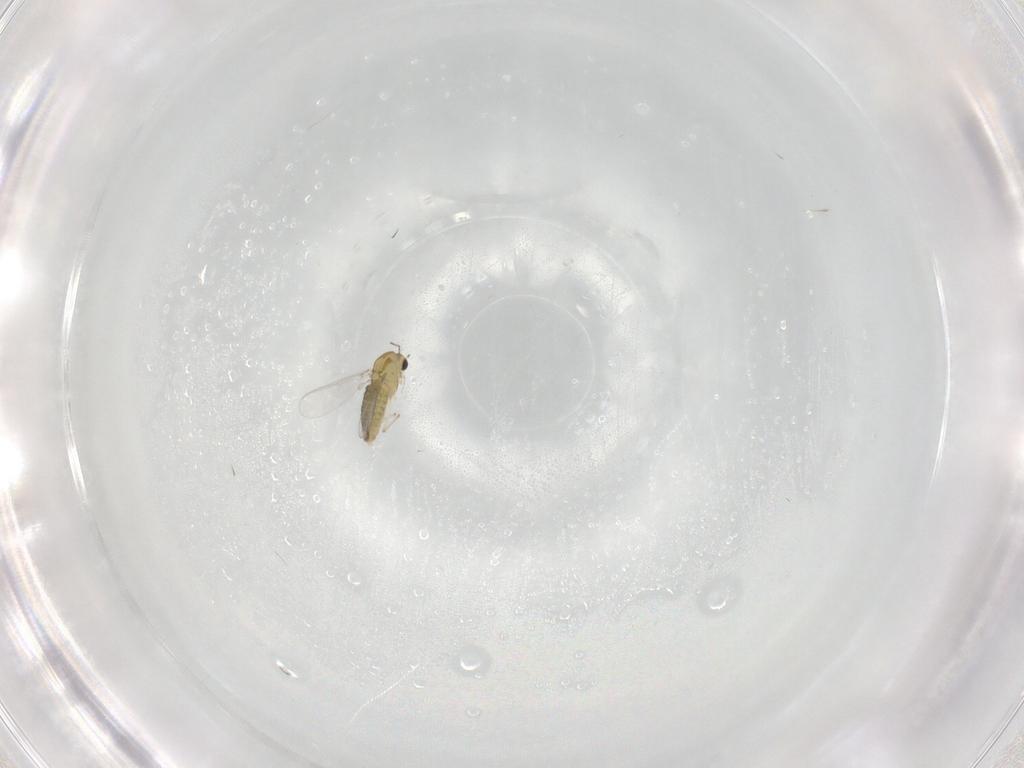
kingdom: Animalia
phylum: Arthropoda
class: Insecta
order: Diptera
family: Chironomidae
